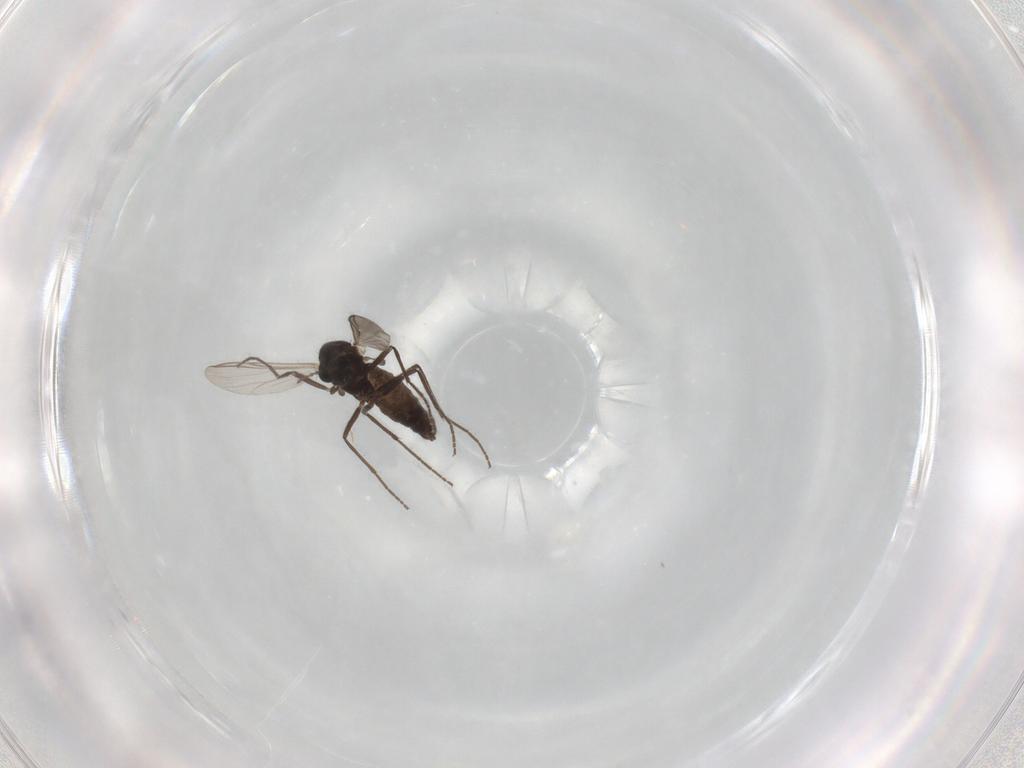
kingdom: Animalia
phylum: Arthropoda
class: Insecta
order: Diptera
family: Chironomidae
